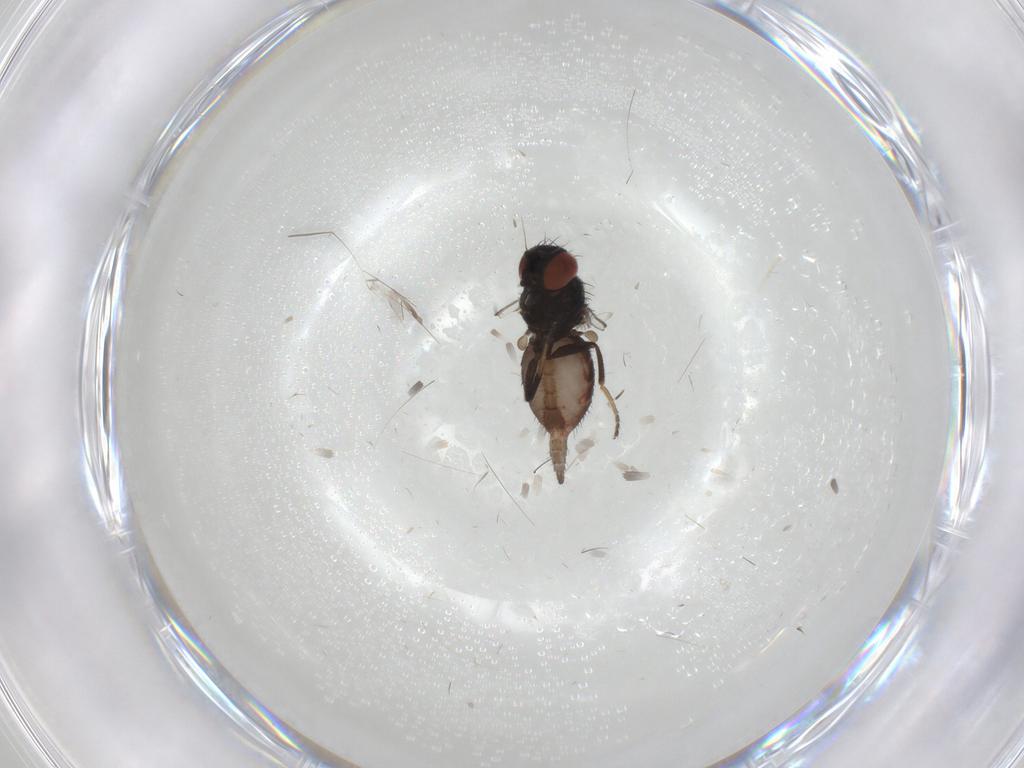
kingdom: Animalia
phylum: Arthropoda
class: Insecta
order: Diptera
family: Milichiidae
